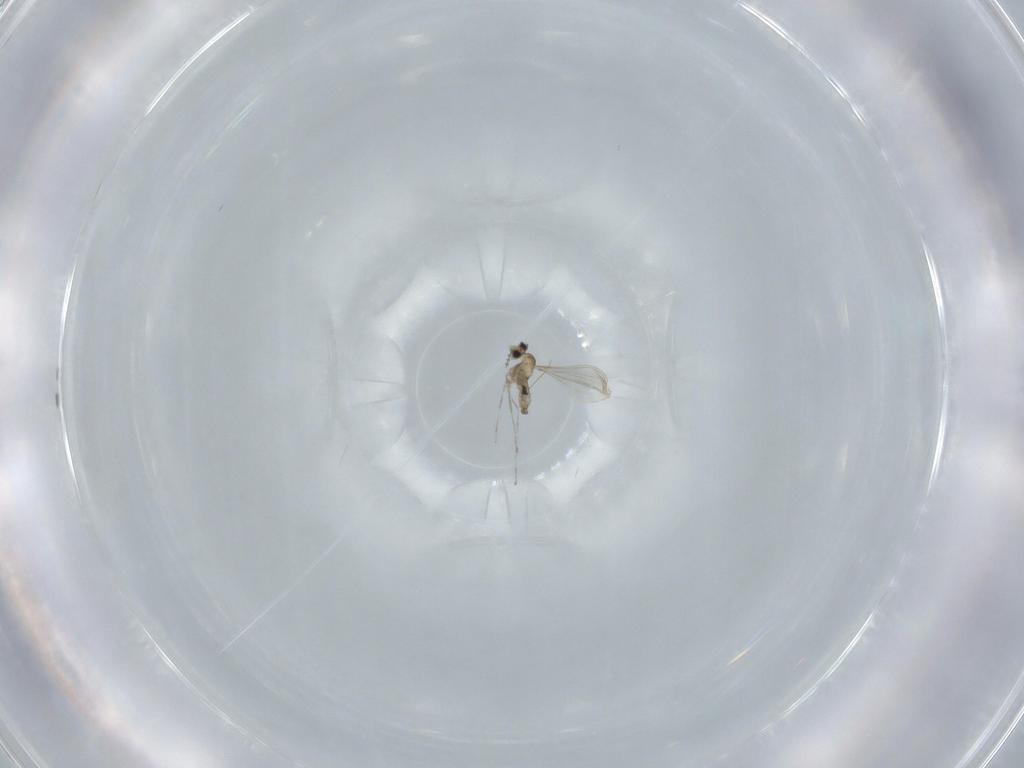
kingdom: Animalia
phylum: Arthropoda
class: Insecta
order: Diptera
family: Cecidomyiidae
